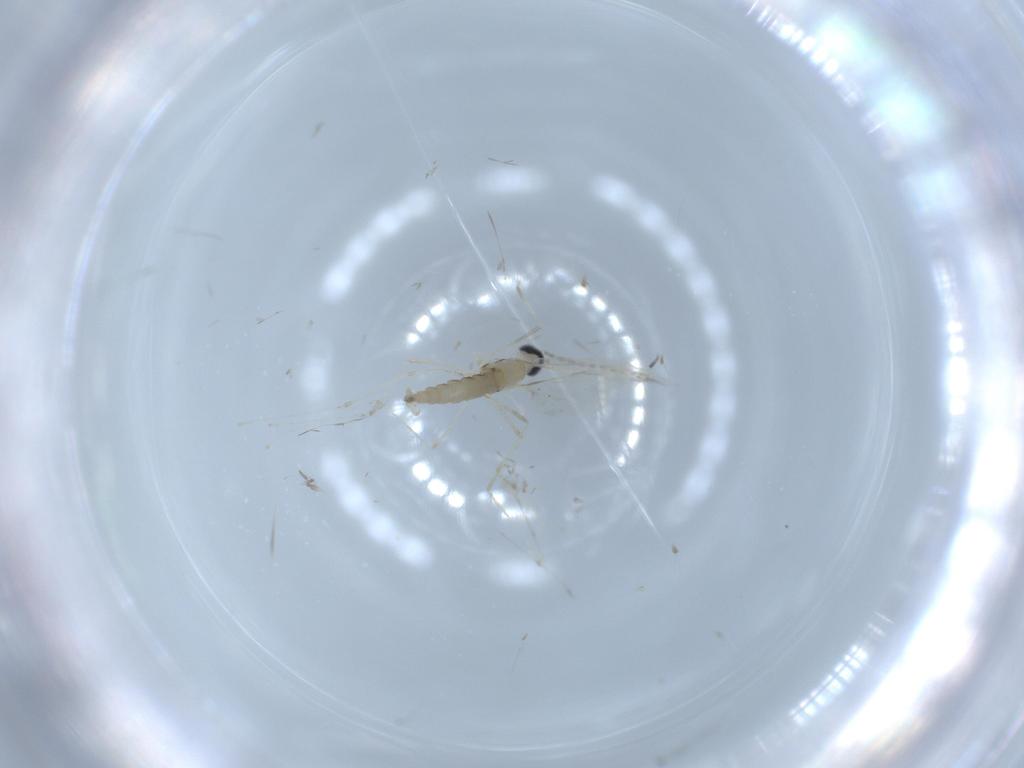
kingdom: Animalia
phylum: Arthropoda
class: Insecta
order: Diptera
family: Cecidomyiidae
